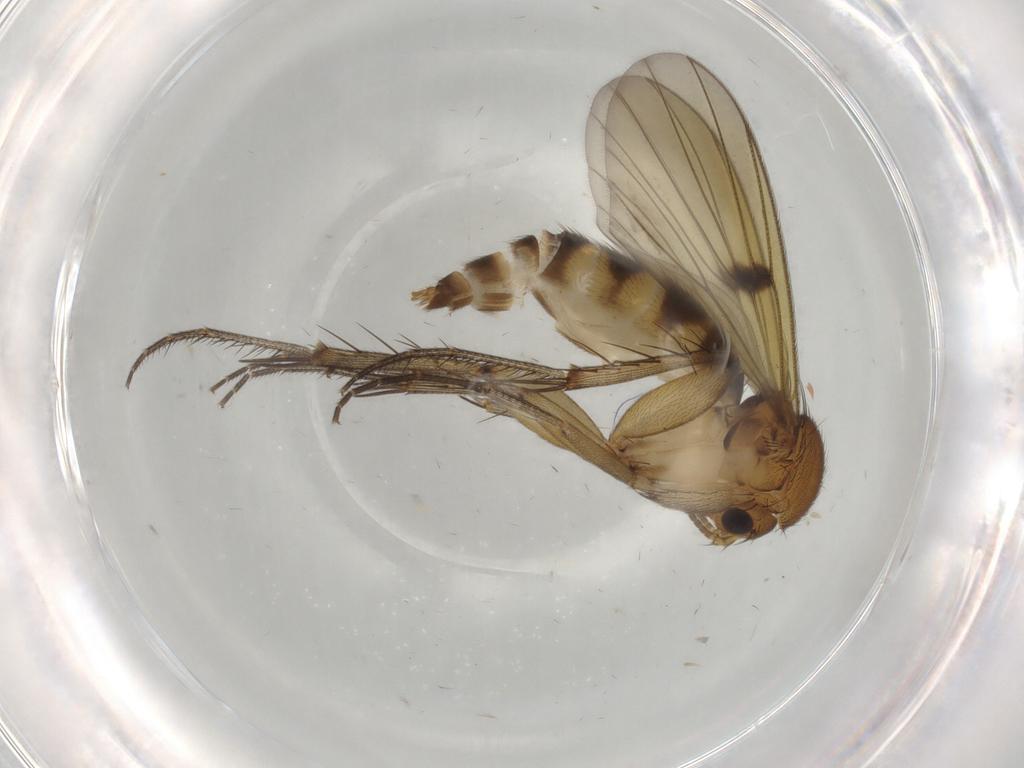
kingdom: Animalia
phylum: Arthropoda
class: Insecta
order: Diptera
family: Mycetophilidae
